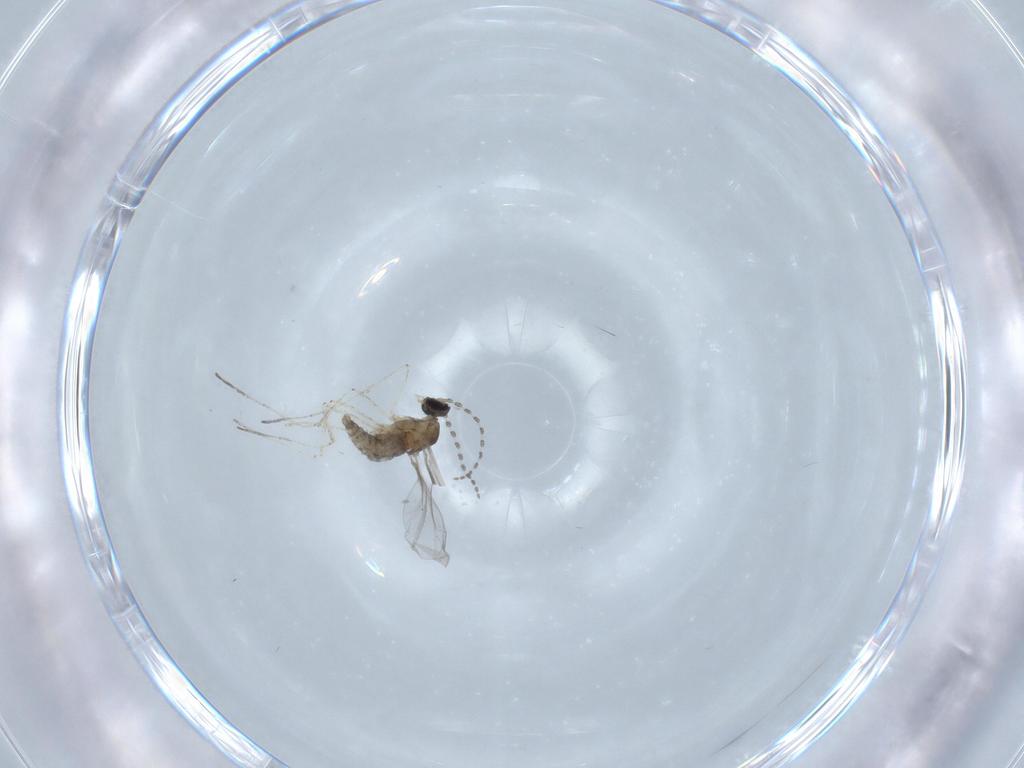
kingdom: Animalia
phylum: Arthropoda
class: Insecta
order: Diptera
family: Cecidomyiidae
